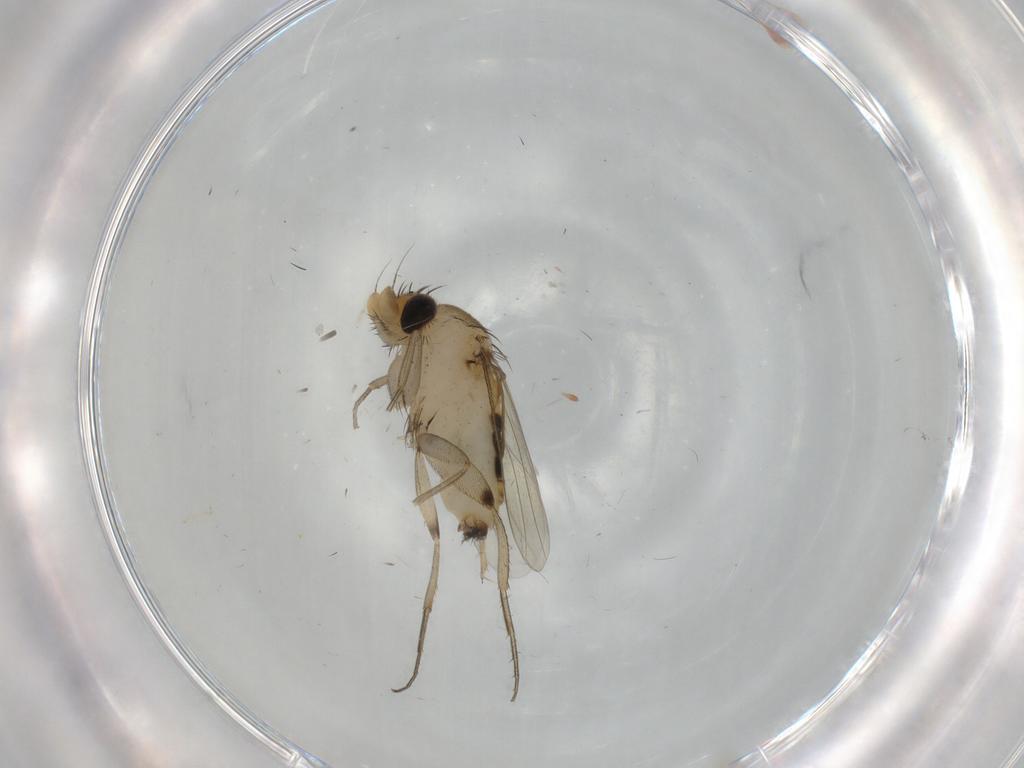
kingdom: Animalia
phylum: Arthropoda
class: Insecta
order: Diptera
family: Phoridae
